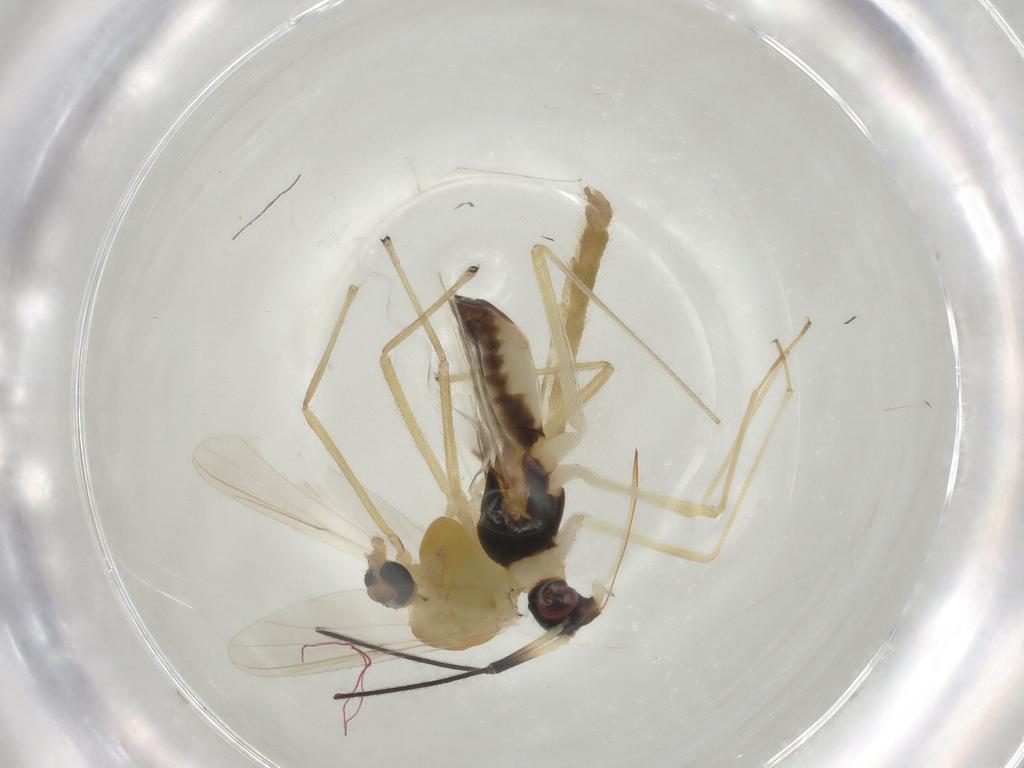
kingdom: Animalia
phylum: Arthropoda
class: Insecta
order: Diptera
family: Chironomidae
